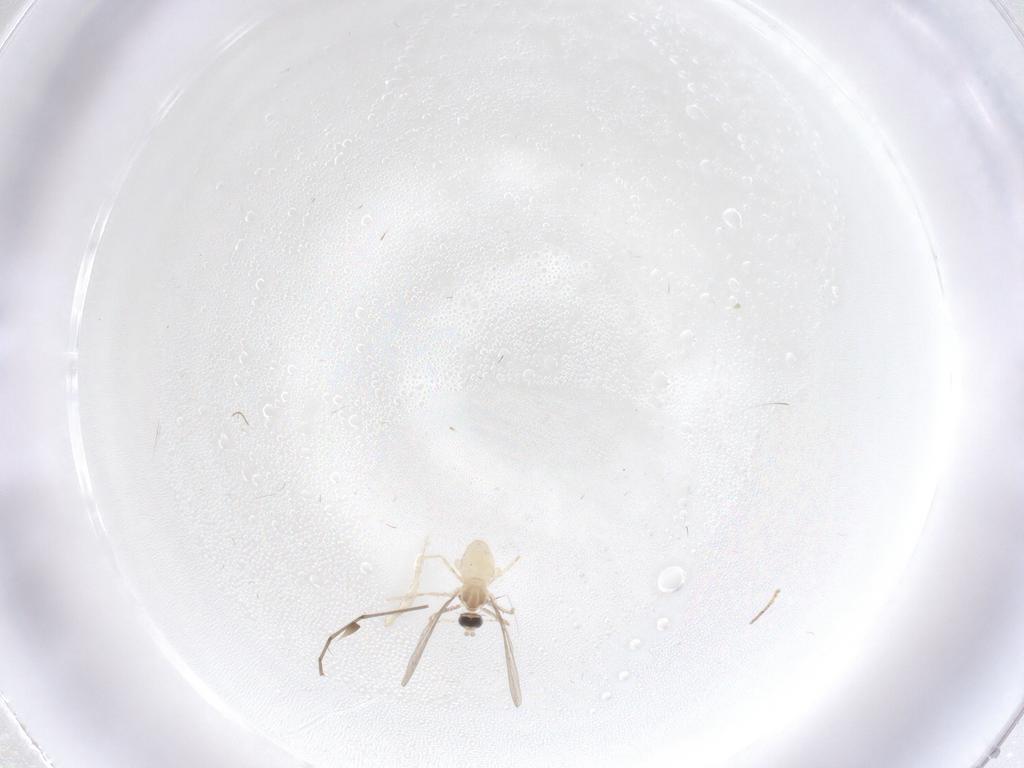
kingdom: Animalia
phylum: Arthropoda
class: Insecta
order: Diptera
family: Cecidomyiidae
